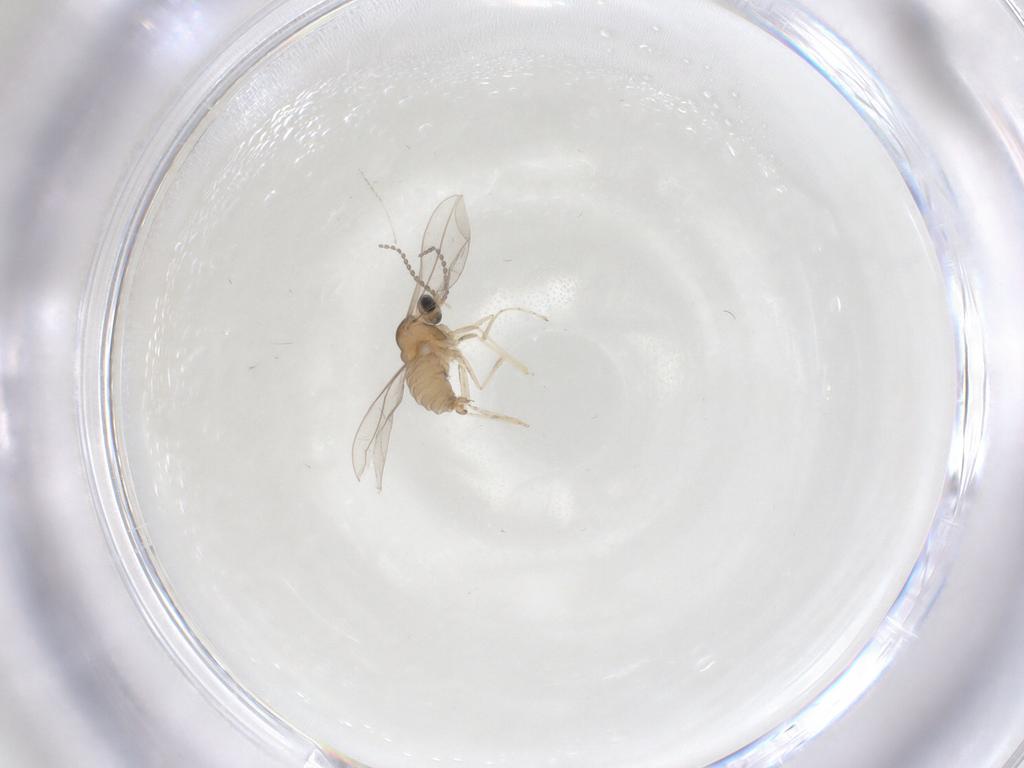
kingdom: Animalia
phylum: Arthropoda
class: Insecta
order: Diptera
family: Cecidomyiidae
